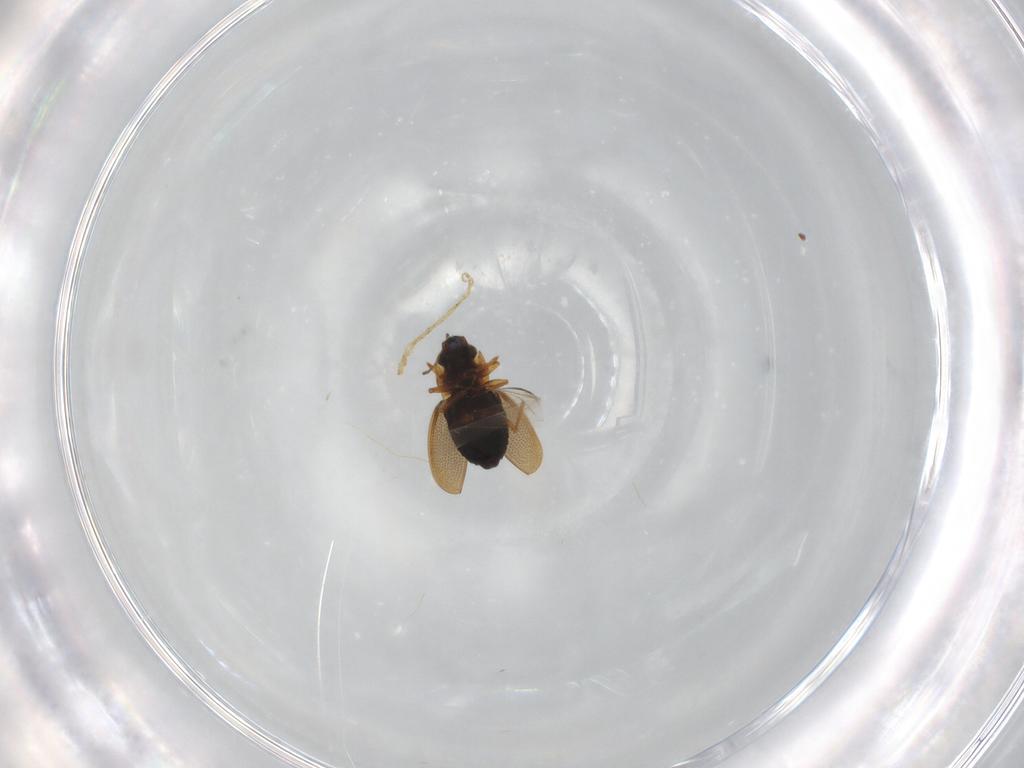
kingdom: Animalia
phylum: Arthropoda
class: Insecta
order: Coleoptera
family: Hydraenidae
